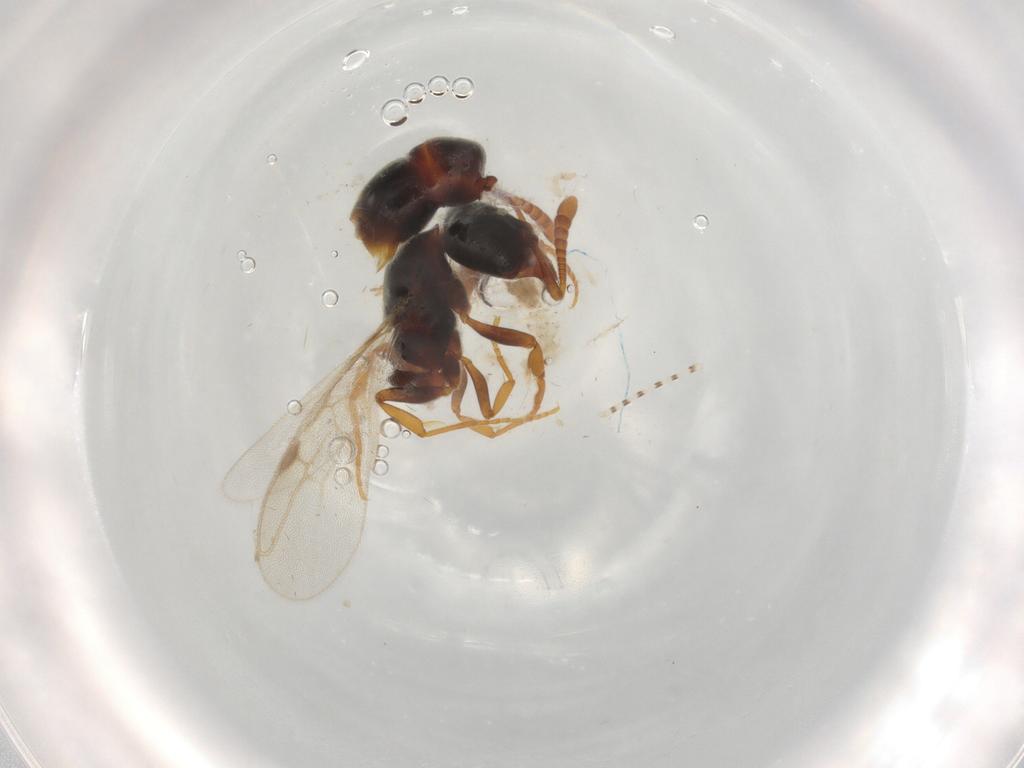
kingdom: Animalia
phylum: Arthropoda
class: Insecta
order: Hymenoptera
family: Formicidae
